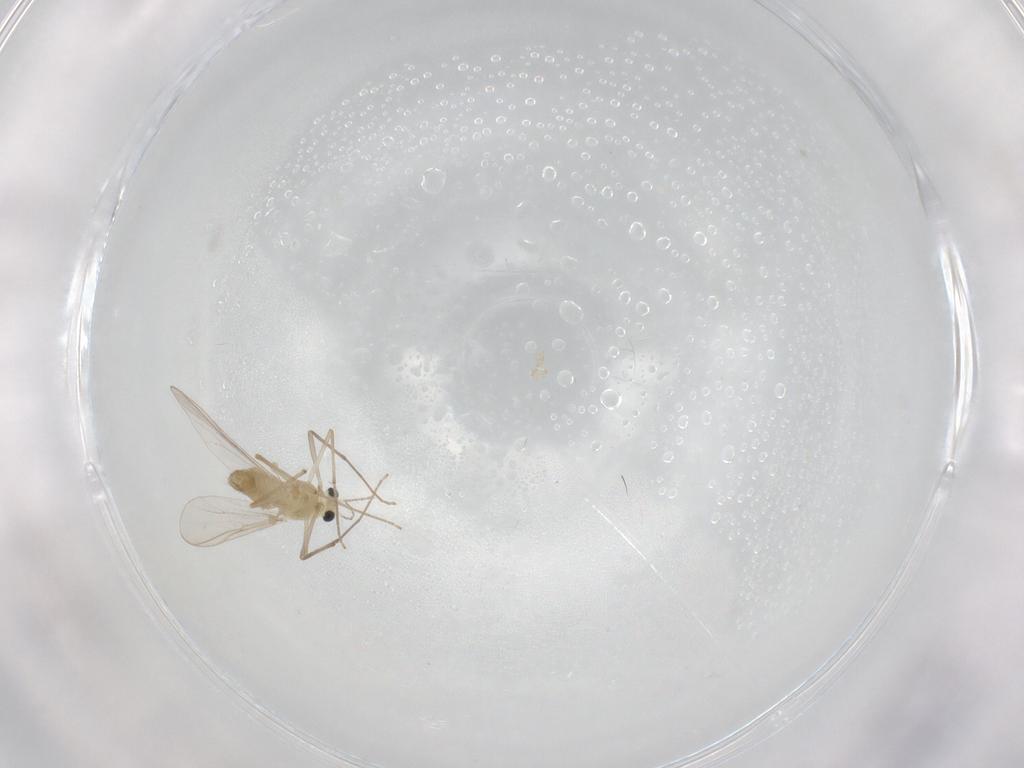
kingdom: Animalia
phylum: Arthropoda
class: Insecta
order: Diptera
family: Chironomidae
